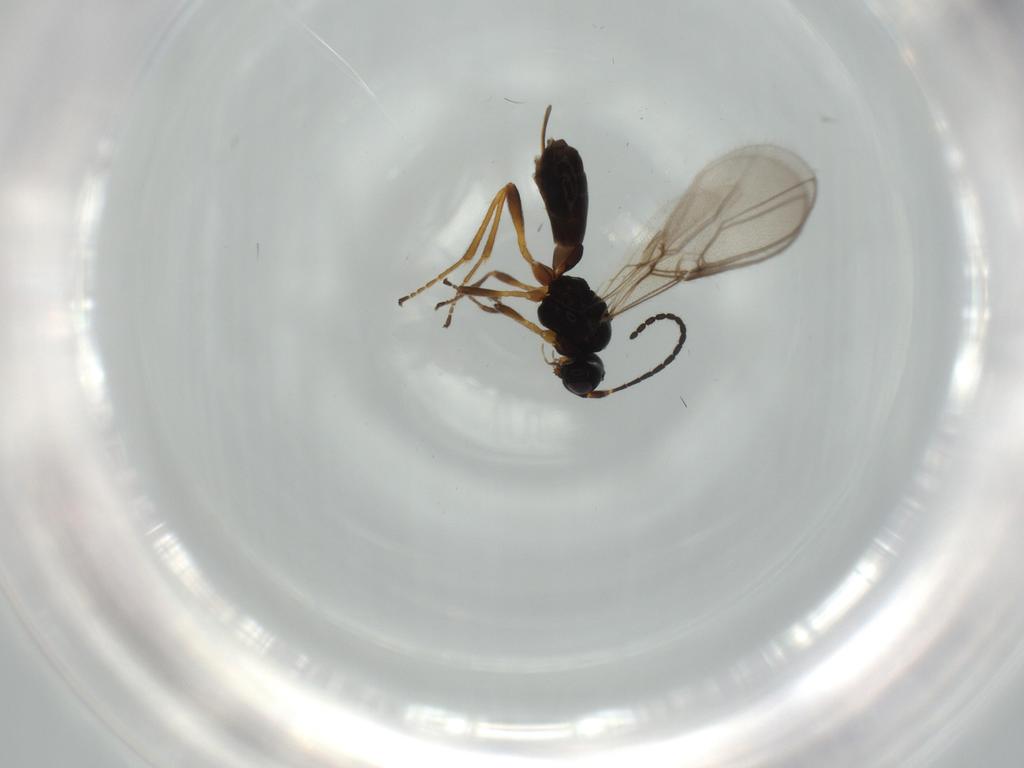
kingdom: Animalia
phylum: Arthropoda
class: Insecta
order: Hymenoptera
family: Braconidae
